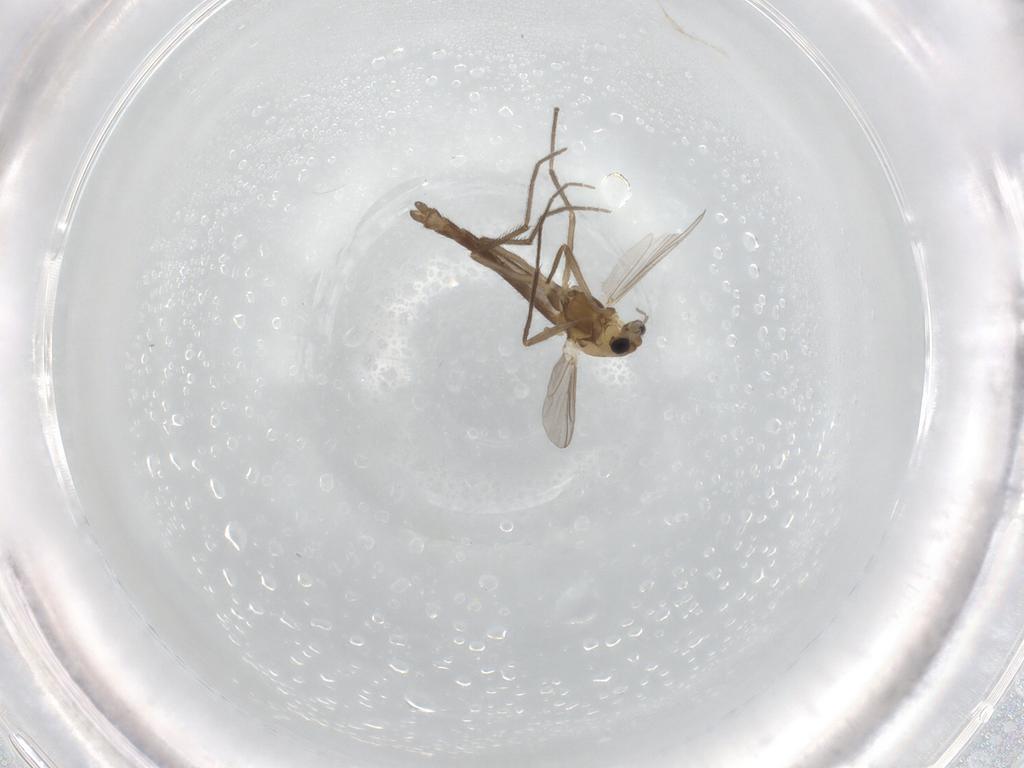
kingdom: Animalia
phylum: Arthropoda
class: Insecta
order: Diptera
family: Chironomidae
